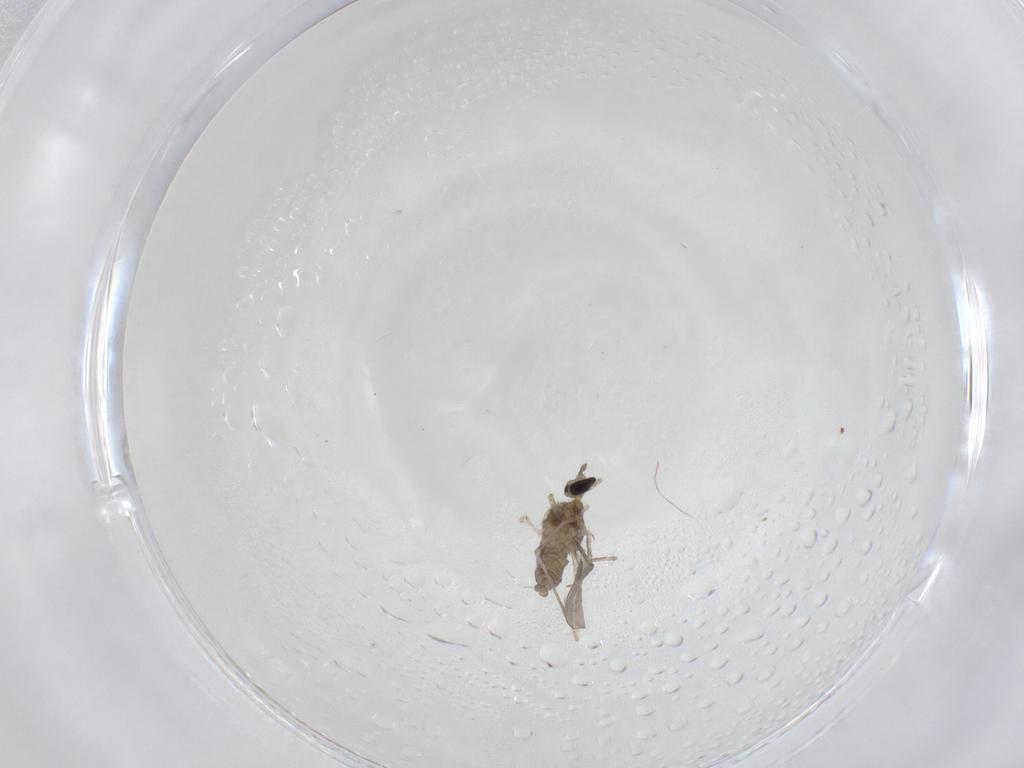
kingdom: Animalia
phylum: Arthropoda
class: Insecta
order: Diptera
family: Cecidomyiidae
